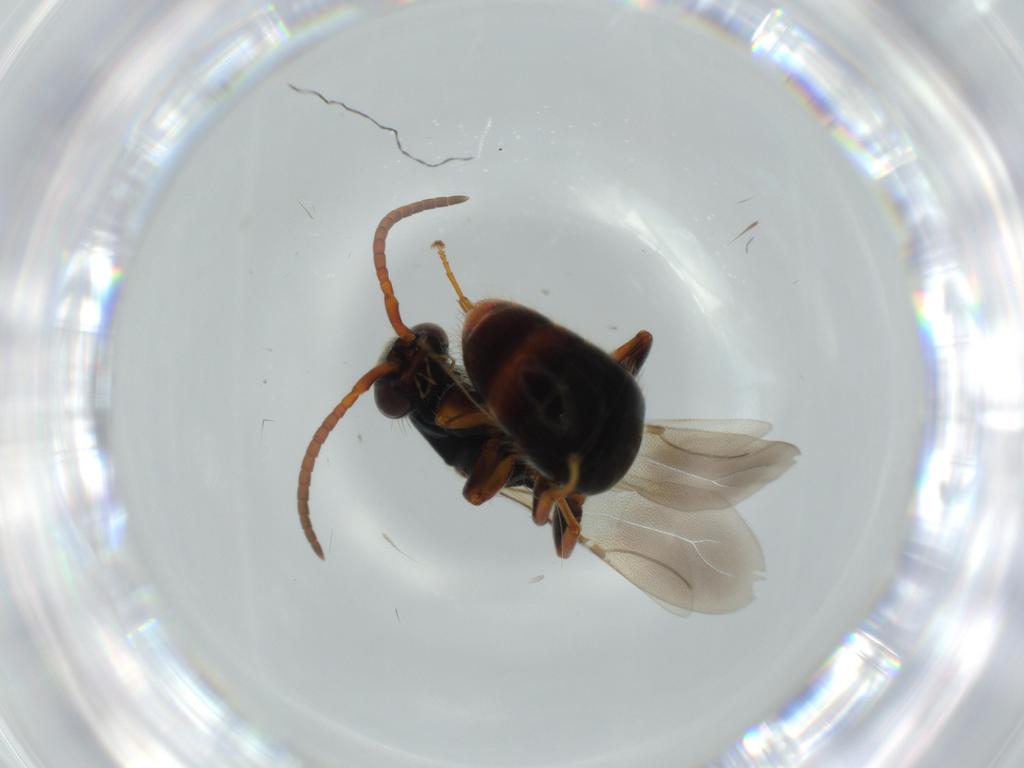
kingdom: Animalia
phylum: Arthropoda
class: Insecta
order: Hymenoptera
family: Bethylidae
